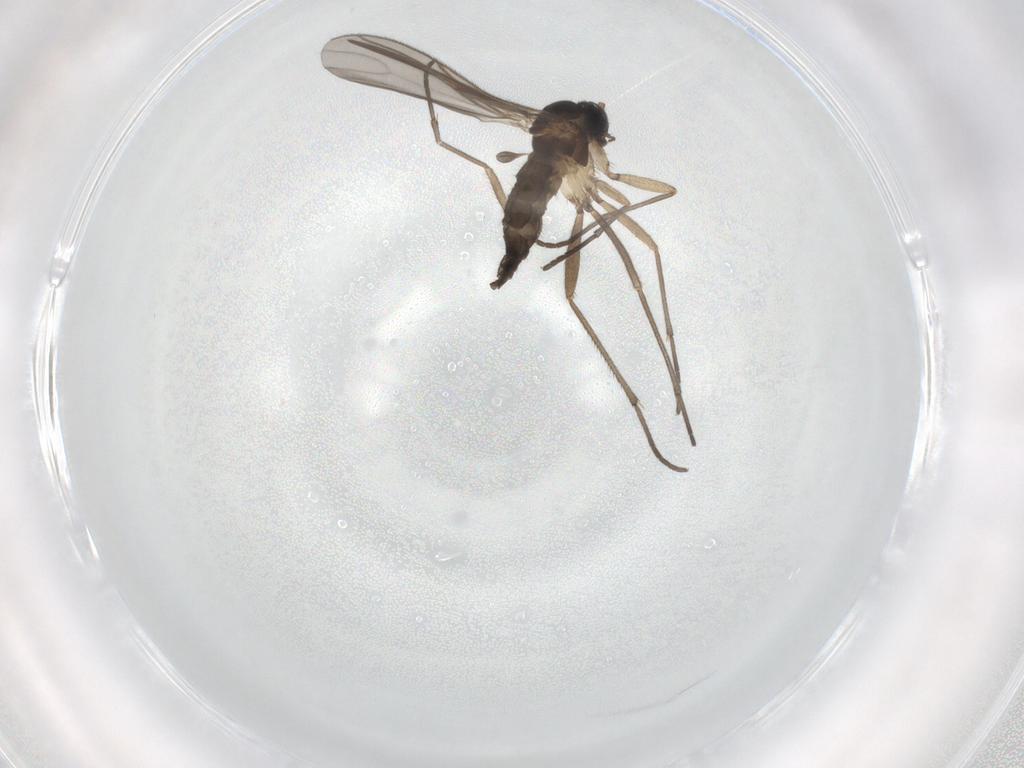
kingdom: Animalia
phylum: Arthropoda
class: Insecta
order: Diptera
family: Sciaridae
